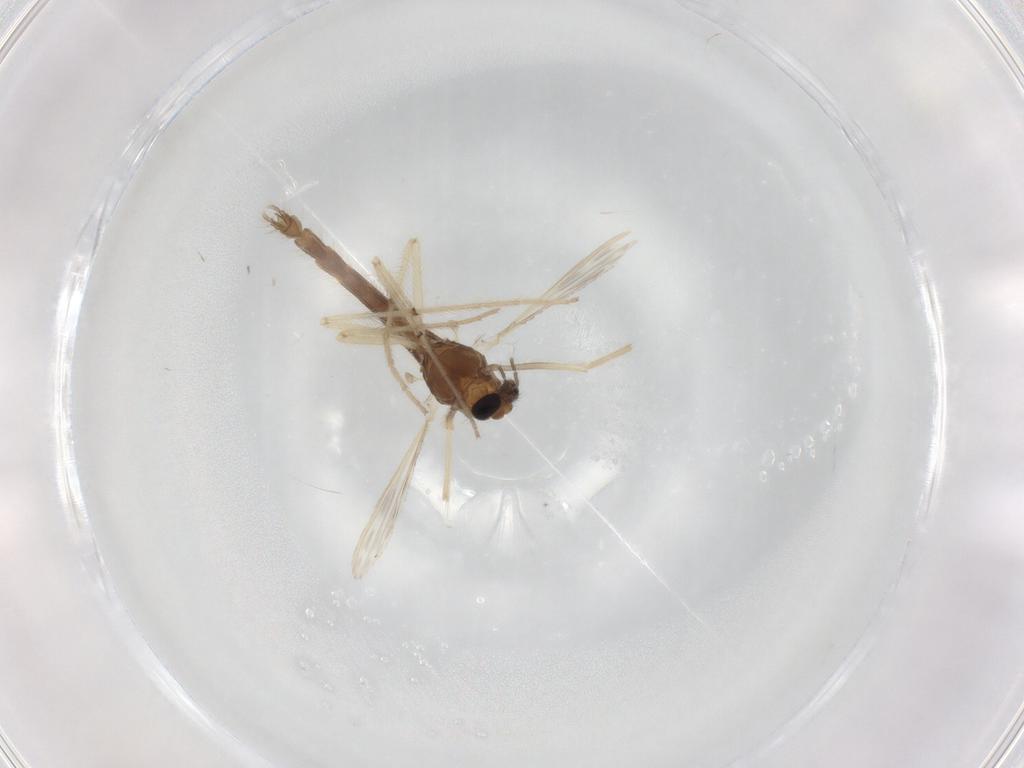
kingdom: Animalia
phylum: Arthropoda
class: Insecta
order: Diptera
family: Chironomidae
